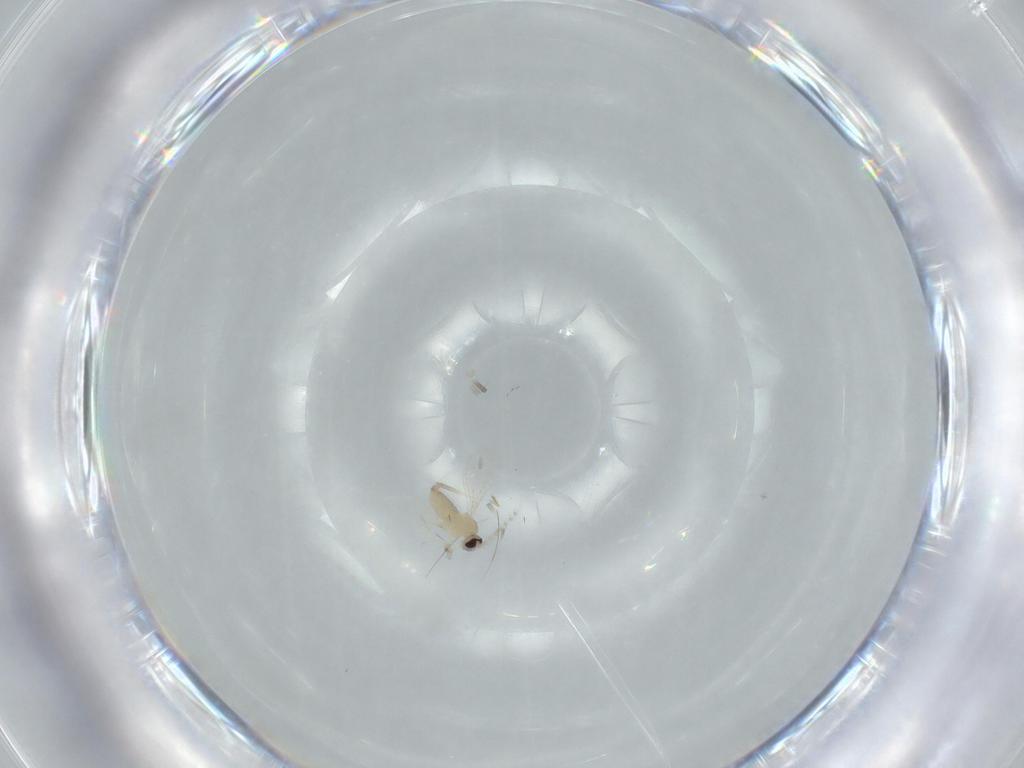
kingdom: Animalia
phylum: Arthropoda
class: Insecta
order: Diptera
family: Cecidomyiidae
